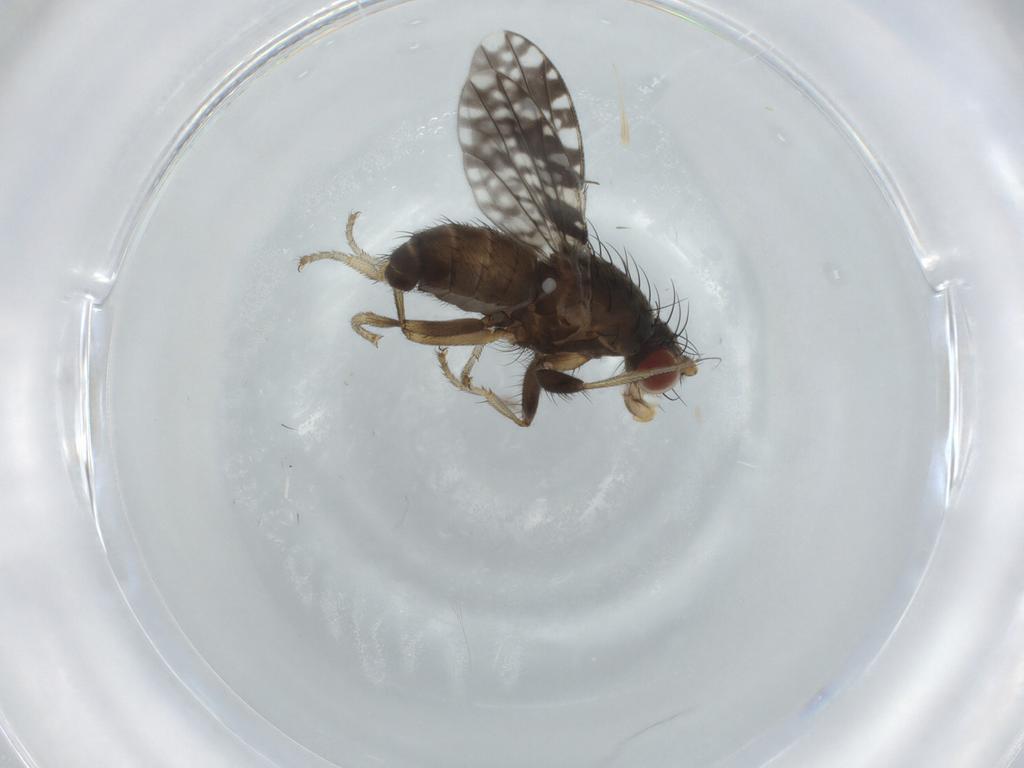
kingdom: Animalia
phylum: Arthropoda
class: Insecta
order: Diptera
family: Tephritidae
